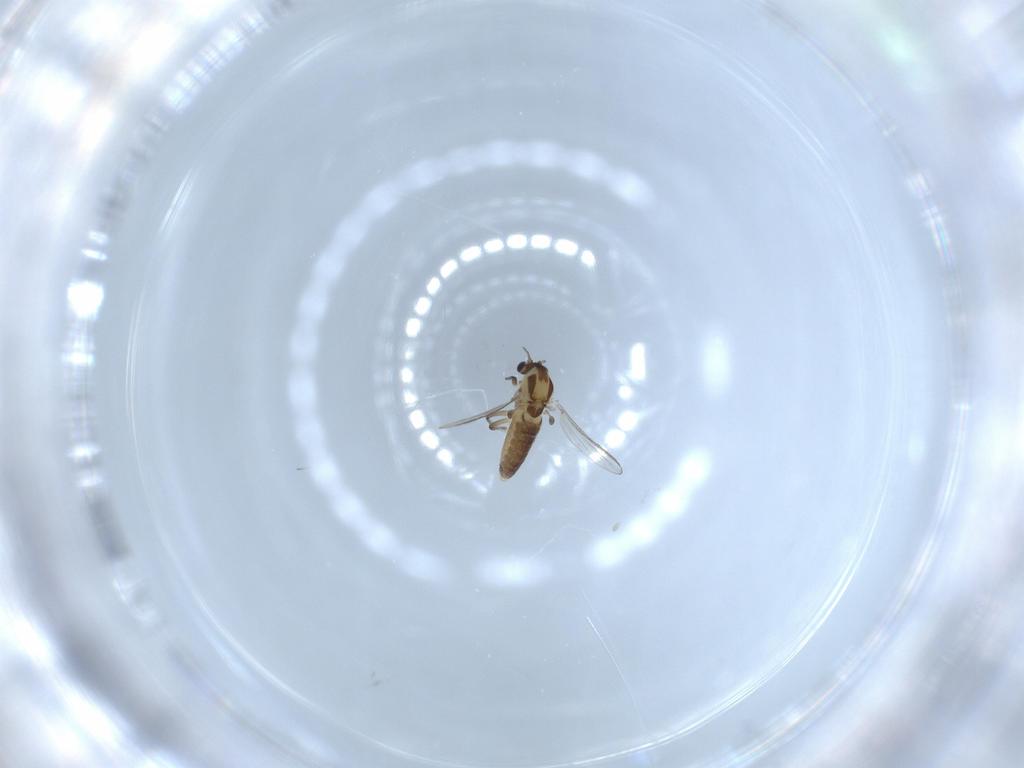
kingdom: Animalia
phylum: Arthropoda
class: Insecta
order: Diptera
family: Chironomidae
